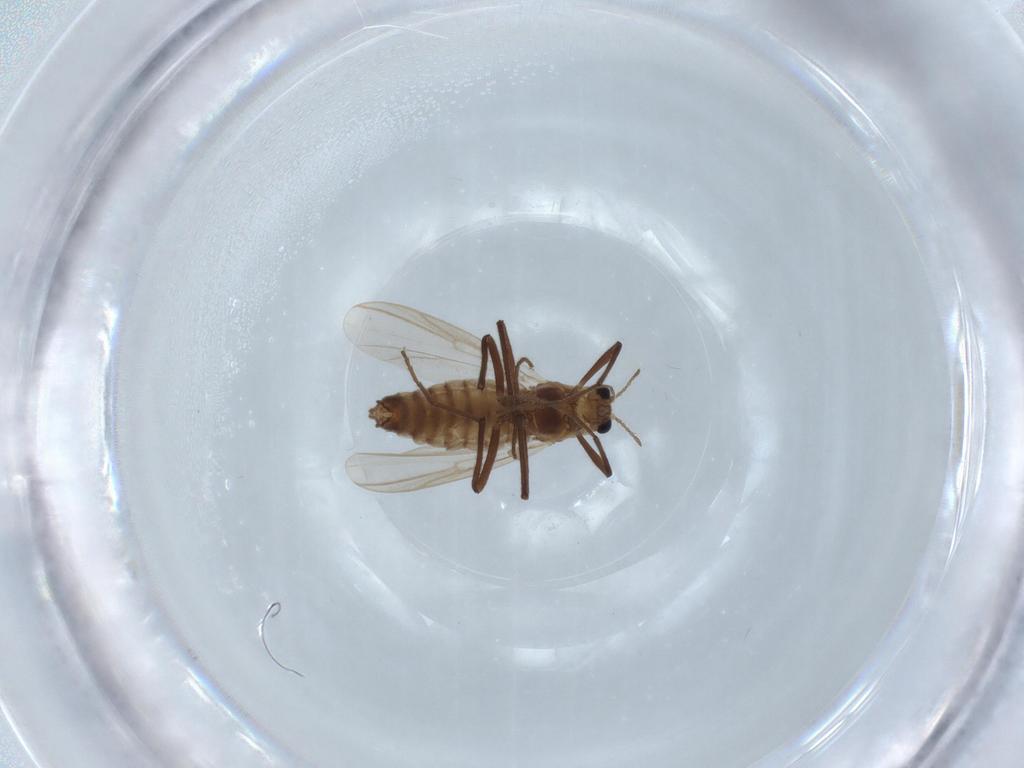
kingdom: Animalia
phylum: Arthropoda
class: Insecta
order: Diptera
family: Chironomidae
